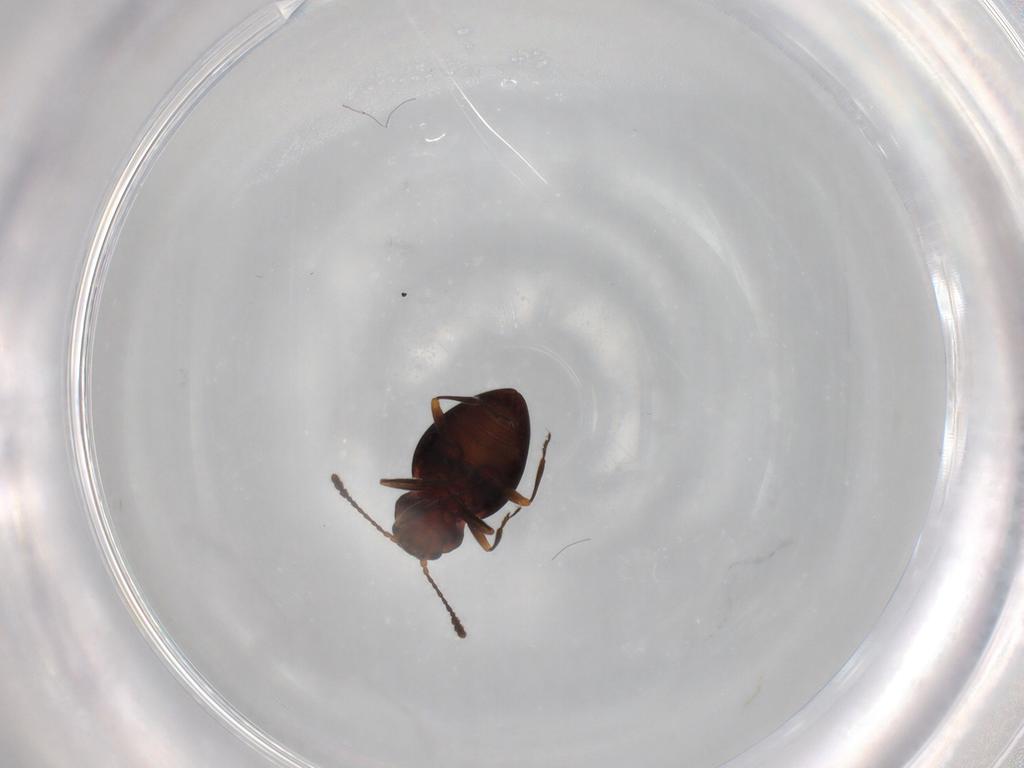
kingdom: Animalia
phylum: Arthropoda
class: Insecta
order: Coleoptera
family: Erotylidae
